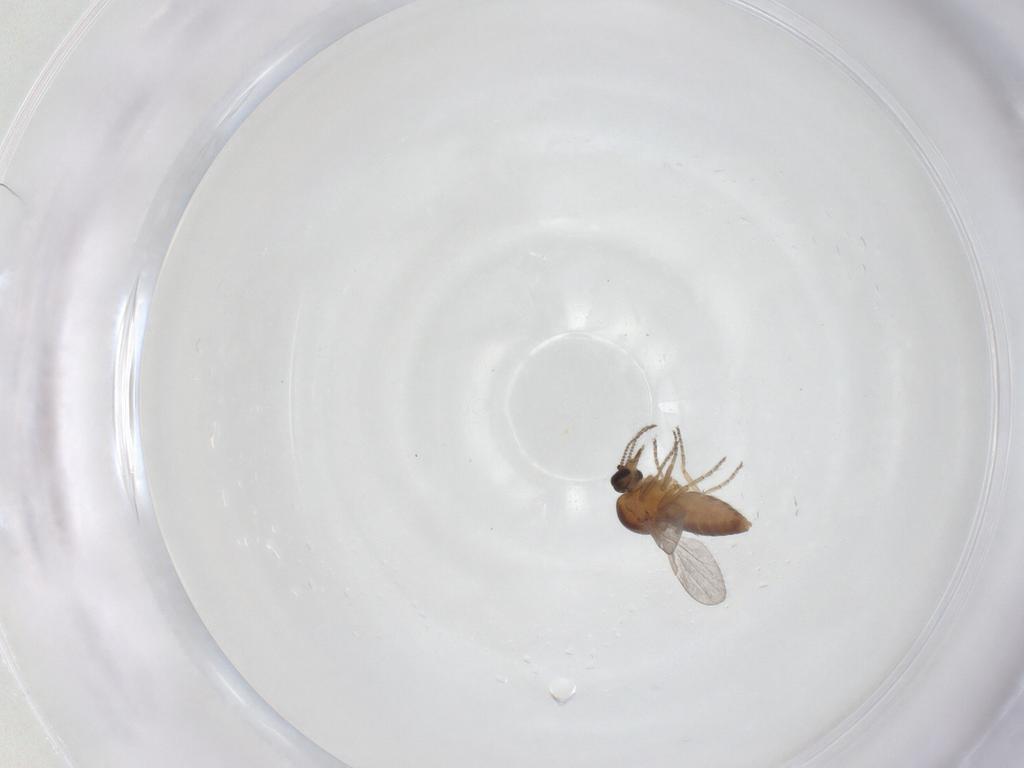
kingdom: Animalia
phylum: Arthropoda
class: Insecta
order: Diptera
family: Ceratopogonidae
